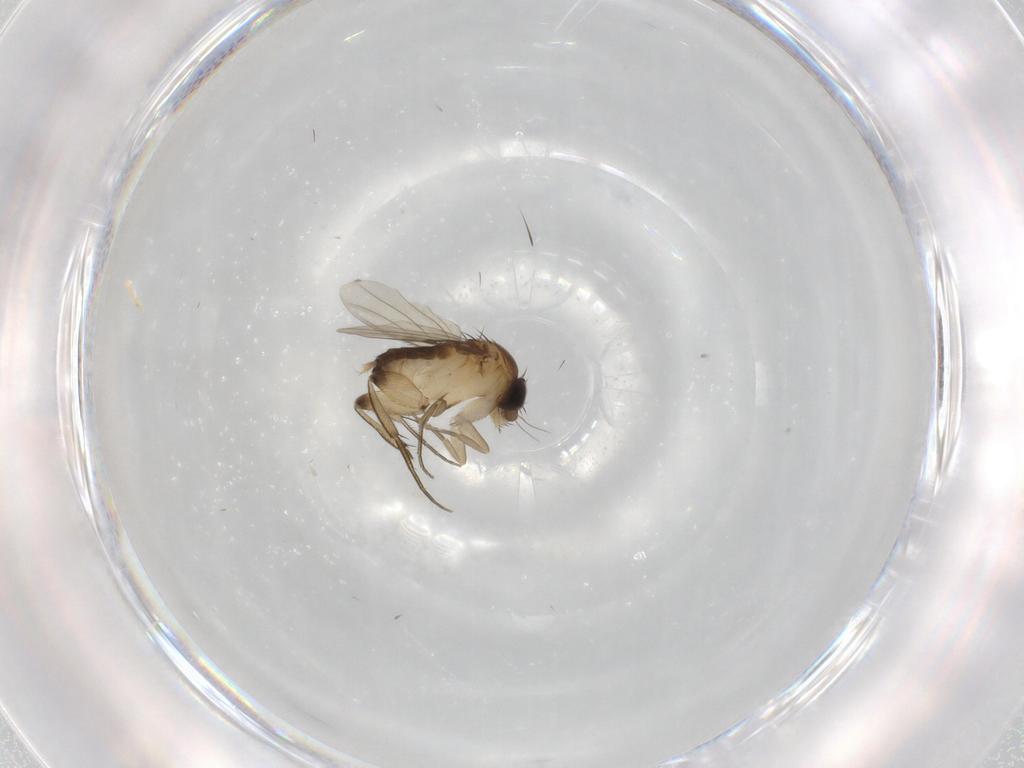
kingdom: Animalia
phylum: Arthropoda
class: Insecta
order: Diptera
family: Phoridae
